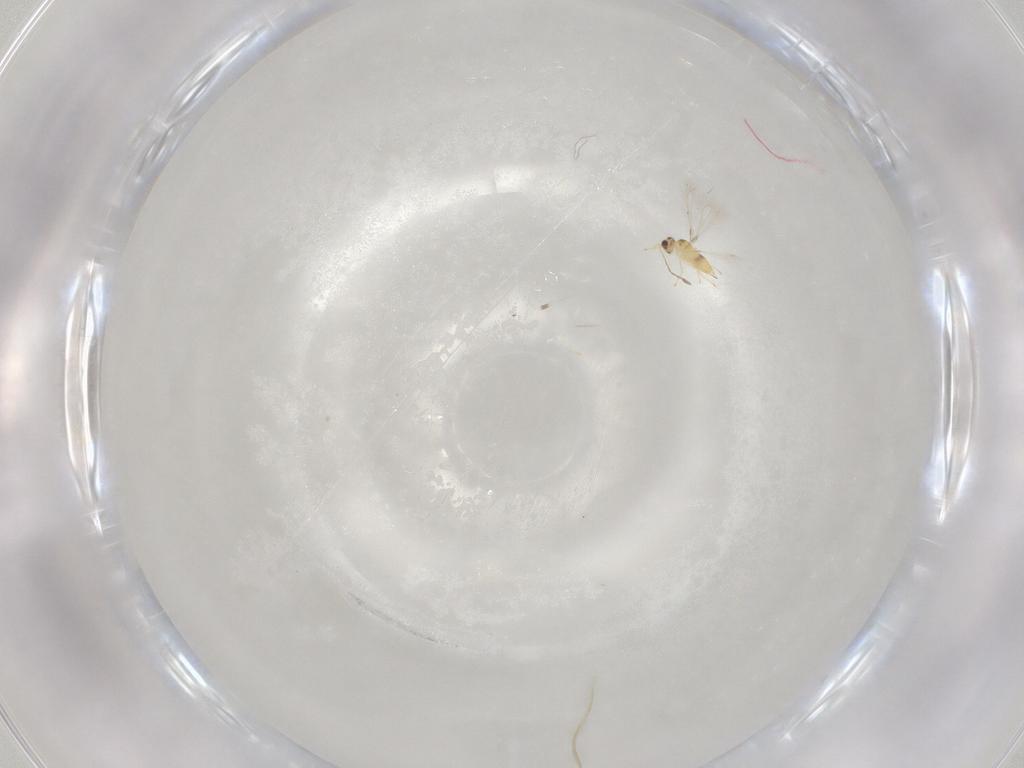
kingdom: Animalia
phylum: Arthropoda
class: Insecta
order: Hymenoptera
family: Mymaridae
